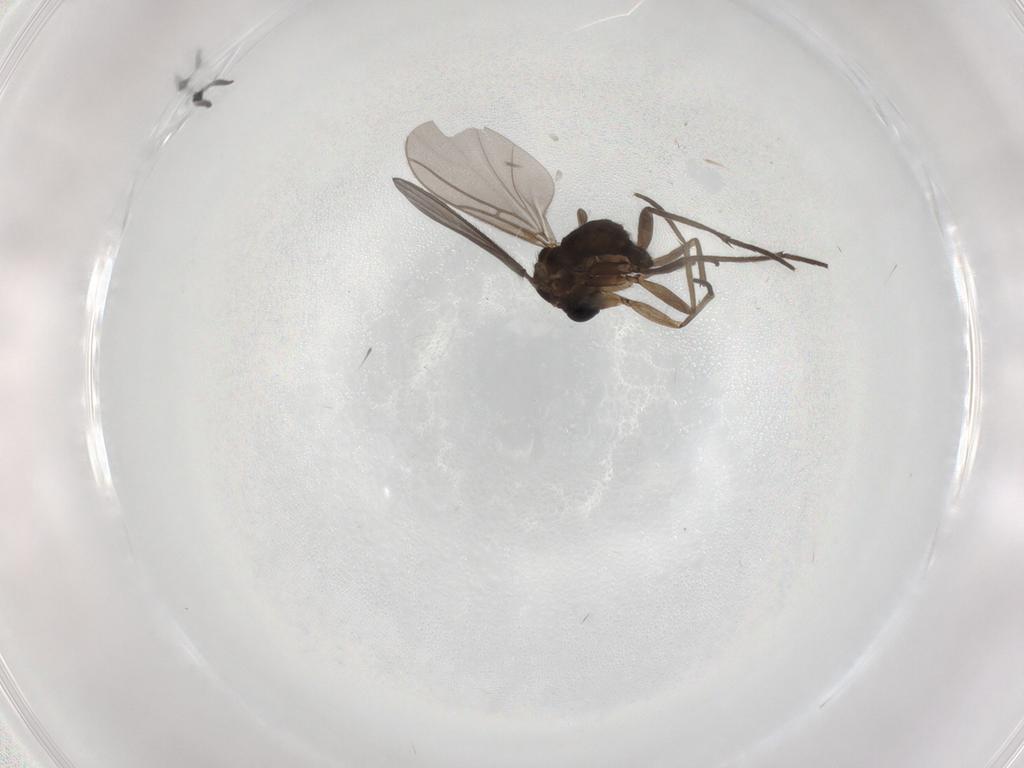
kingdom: Animalia
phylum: Arthropoda
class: Insecta
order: Diptera
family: Sciaridae
